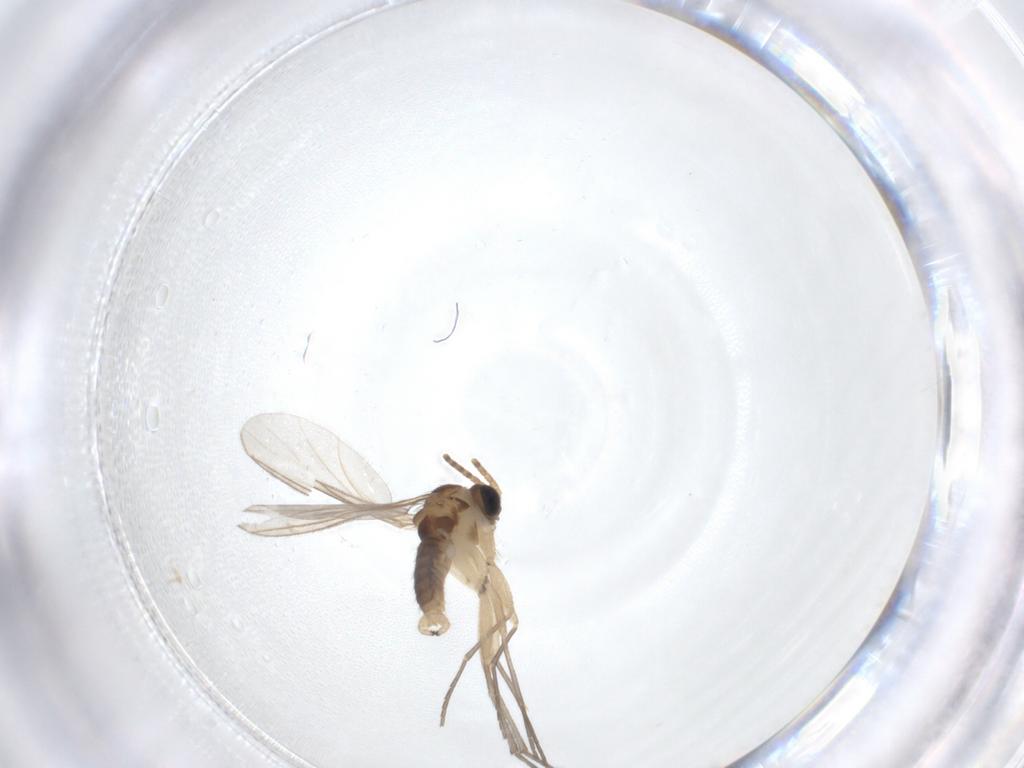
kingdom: Animalia
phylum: Arthropoda
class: Insecta
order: Diptera
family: Sciaridae
